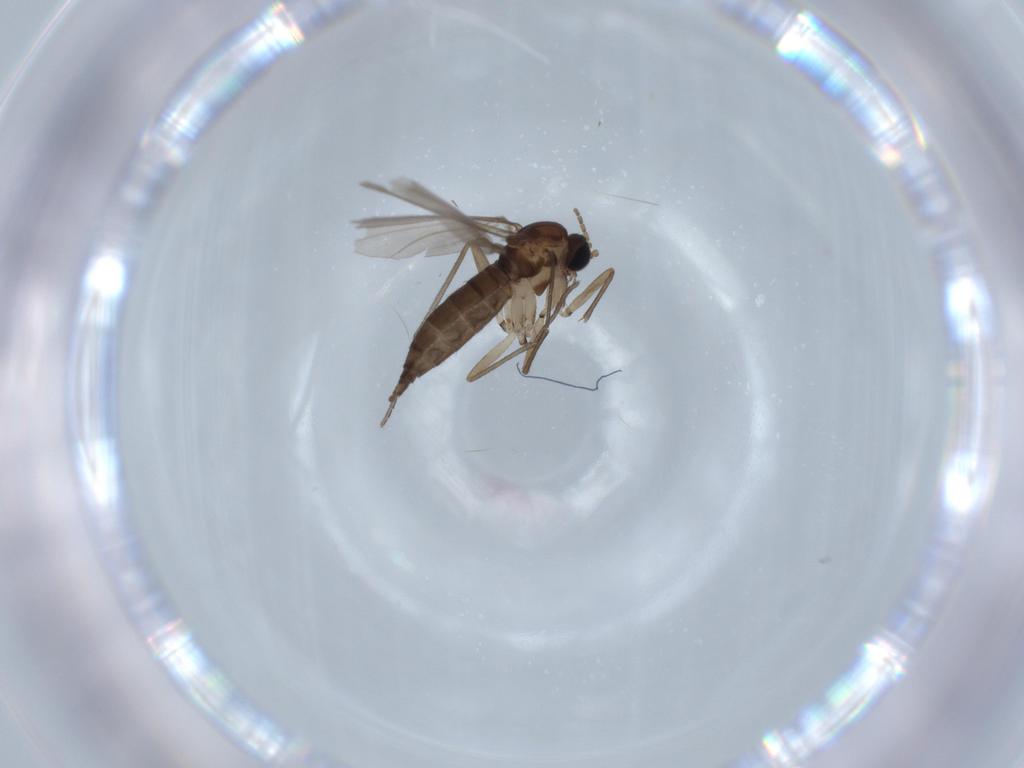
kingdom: Animalia
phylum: Arthropoda
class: Insecta
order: Diptera
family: Sciaridae
